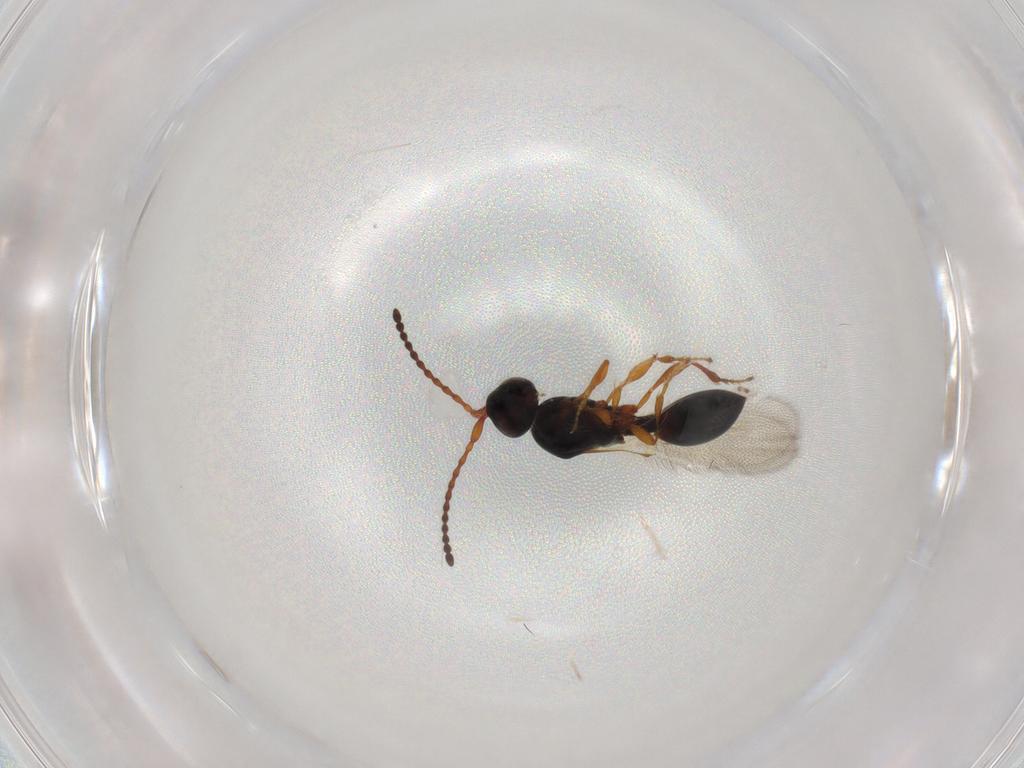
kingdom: Animalia
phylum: Arthropoda
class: Insecta
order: Hymenoptera
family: Diapriidae
